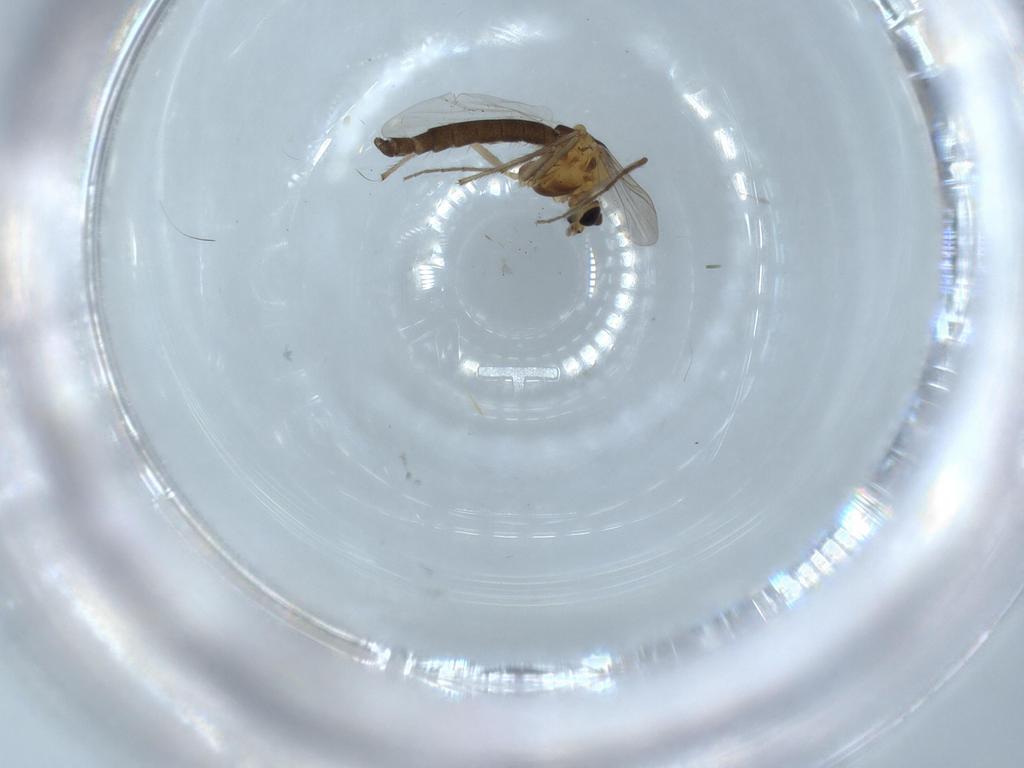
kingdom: Animalia
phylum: Arthropoda
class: Insecta
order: Diptera
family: Chironomidae
